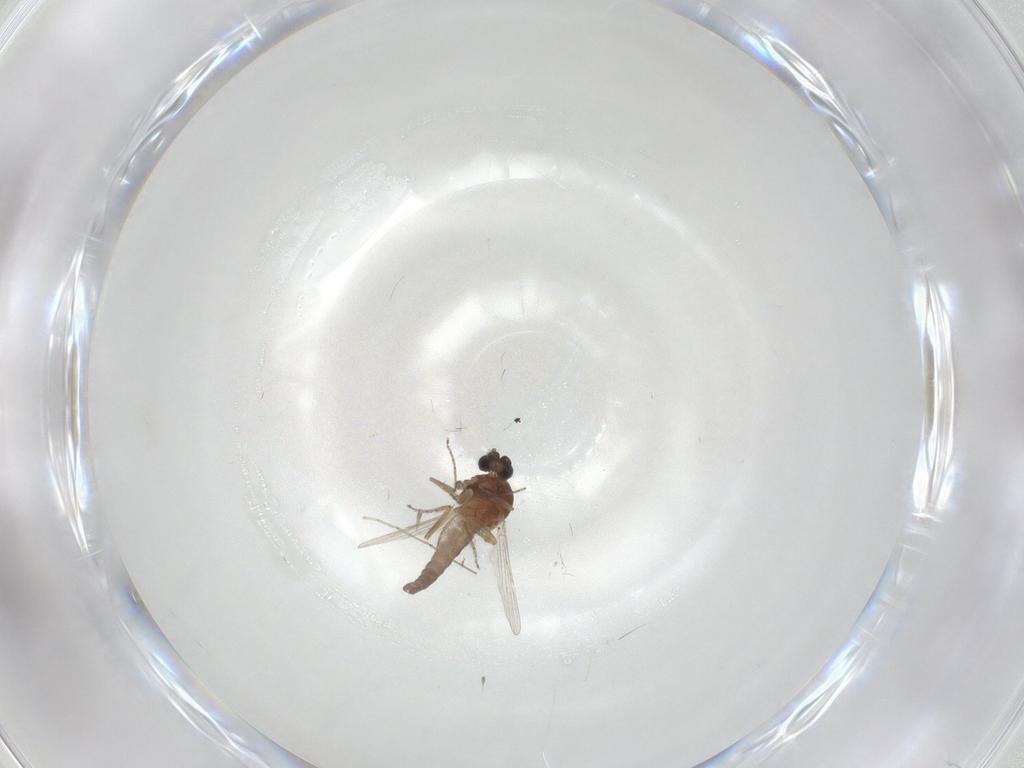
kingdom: Animalia
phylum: Arthropoda
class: Insecta
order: Diptera
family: Ceratopogonidae
